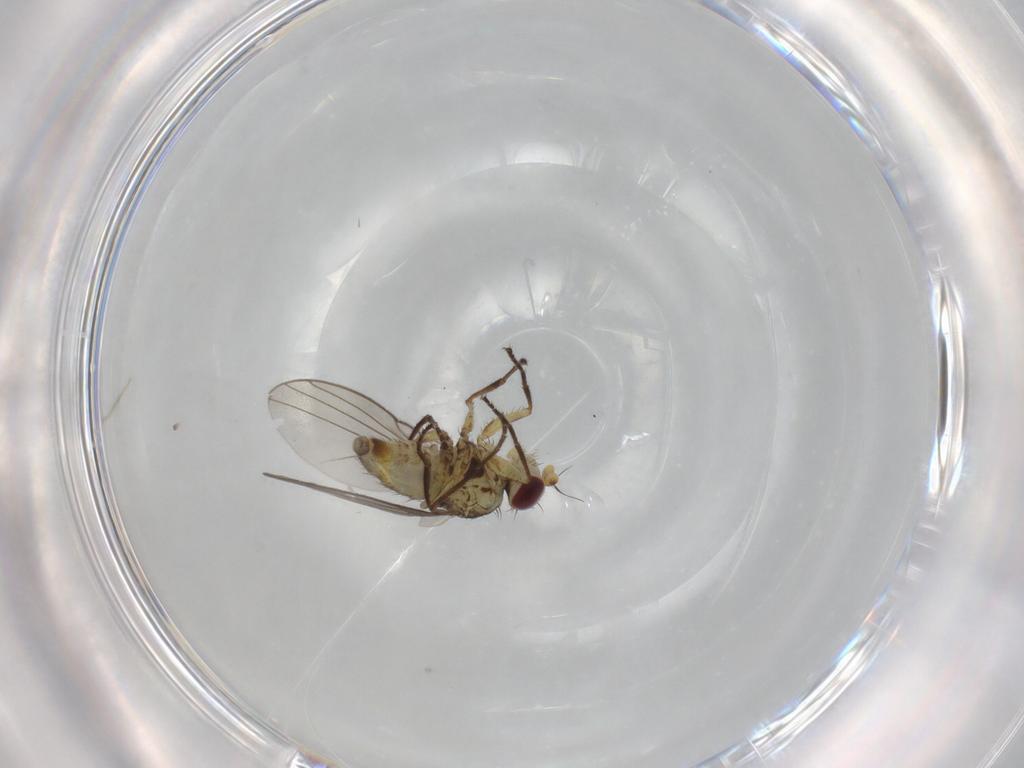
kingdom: Animalia
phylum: Arthropoda
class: Insecta
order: Diptera
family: Agromyzidae
